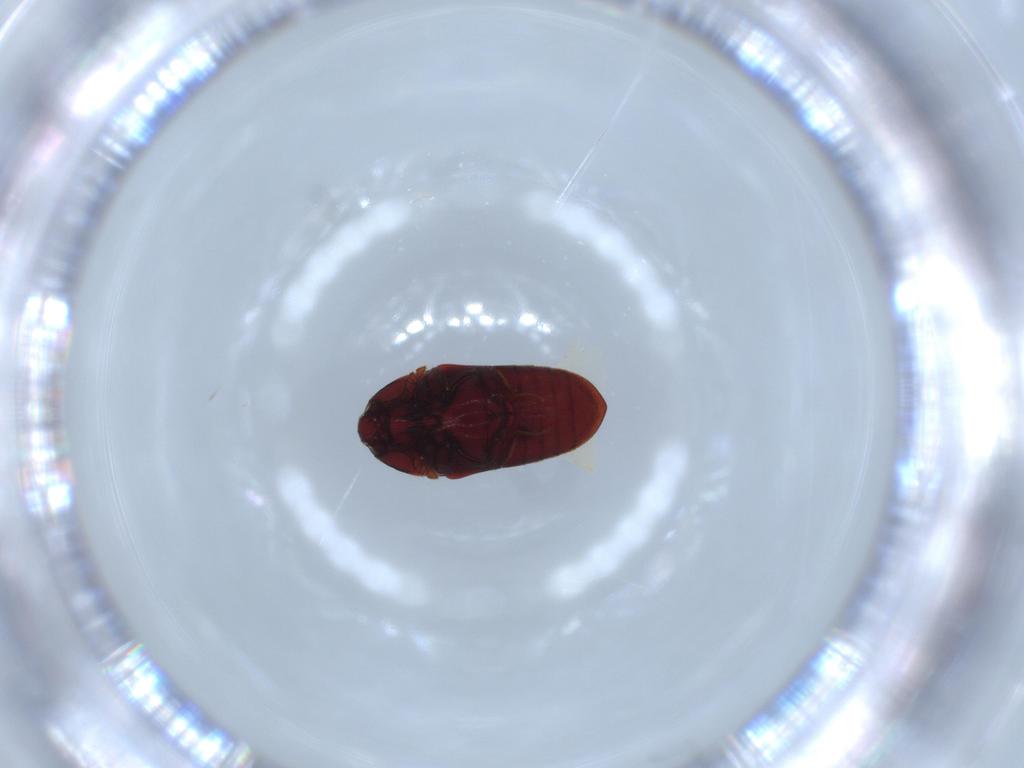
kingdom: Animalia
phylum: Arthropoda
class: Insecta
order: Coleoptera
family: Throscidae
